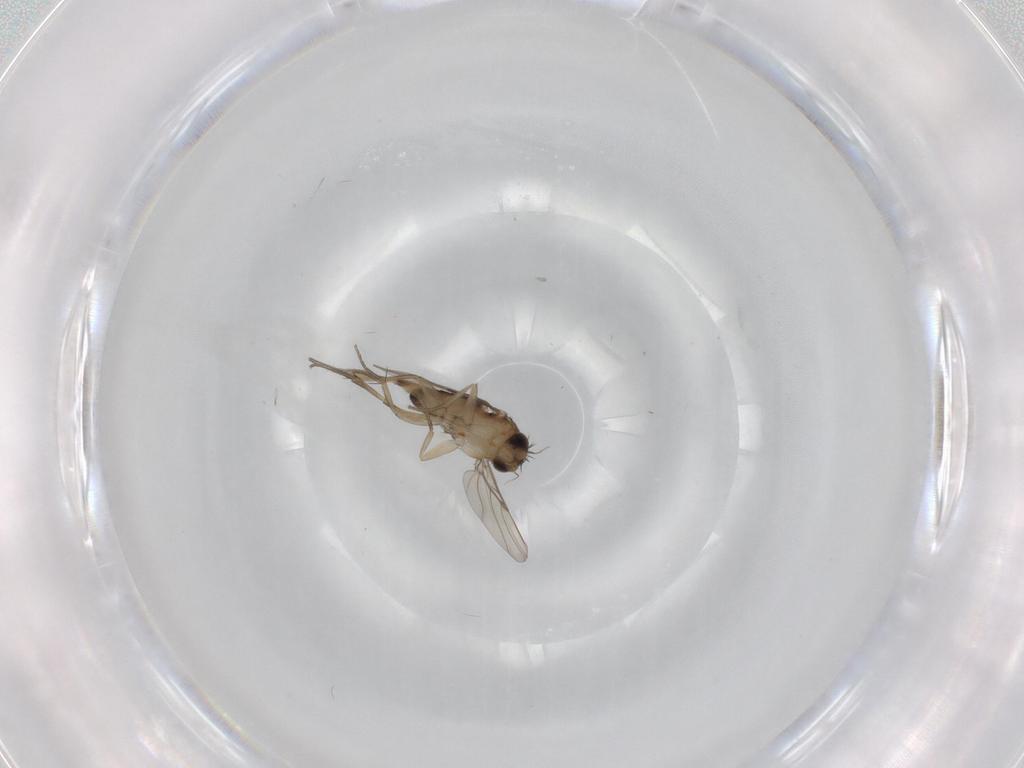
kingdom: Animalia
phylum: Arthropoda
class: Insecta
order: Diptera
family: Phoridae
